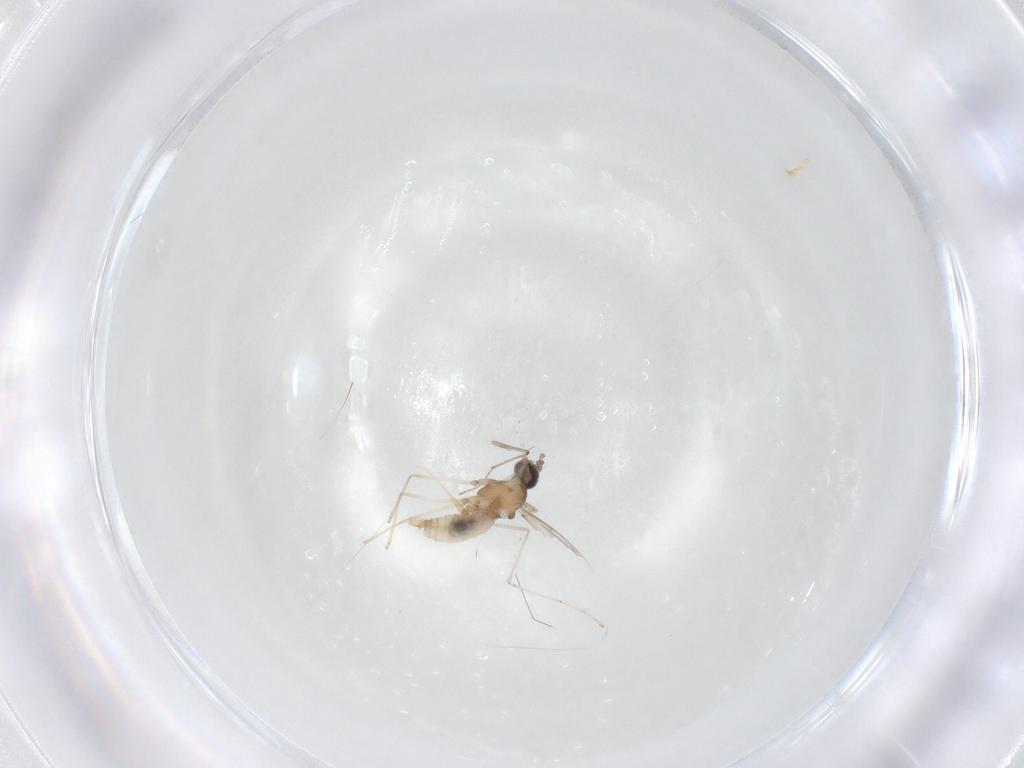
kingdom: Animalia
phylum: Arthropoda
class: Insecta
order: Diptera
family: Cecidomyiidae
